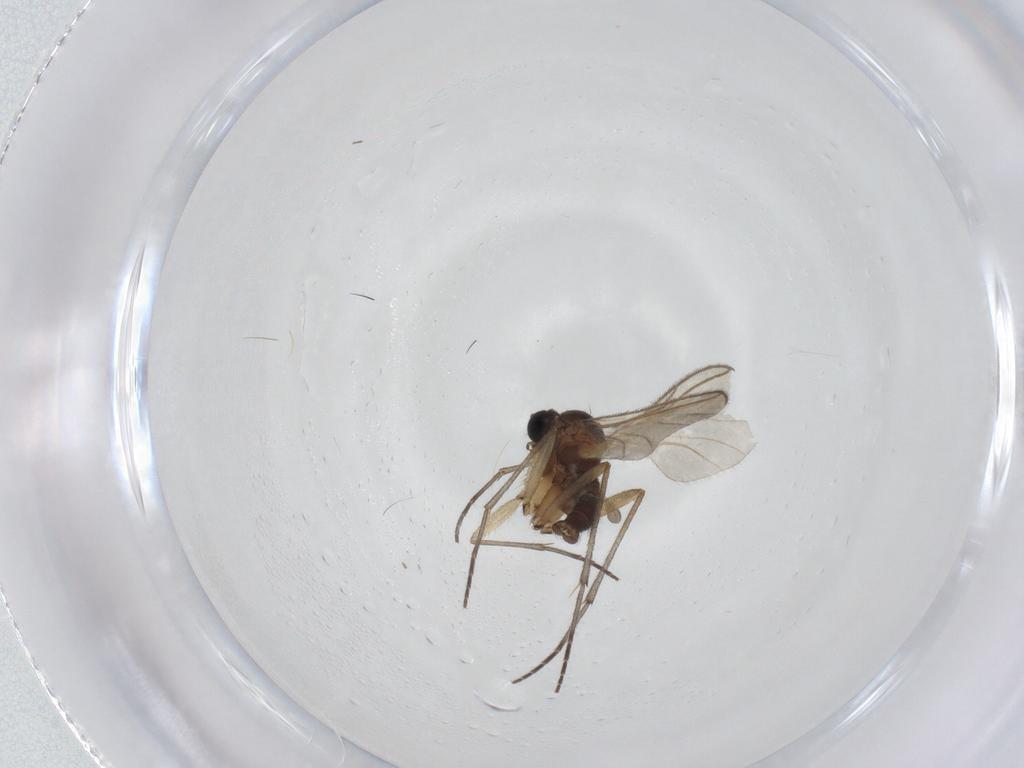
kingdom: Animalia
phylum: Arthropoda
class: Insecta
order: Diptera
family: Sciaridae
